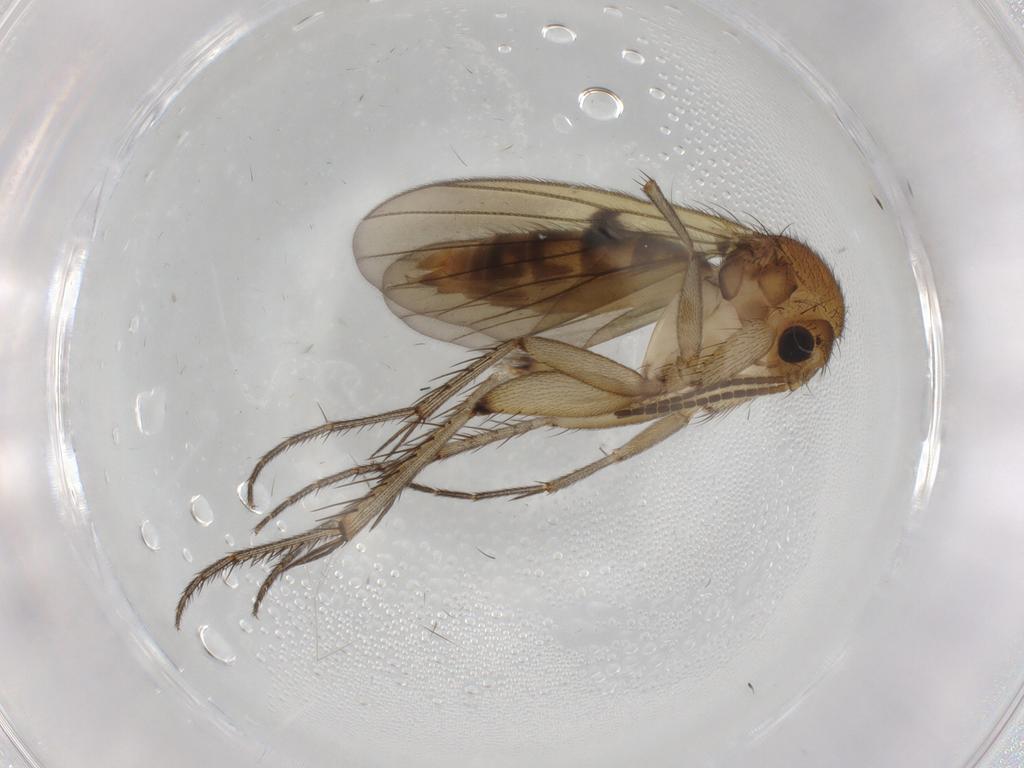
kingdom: Animalia
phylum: Arthropoda
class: Insecta
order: Diptera
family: Mycetophilidae
